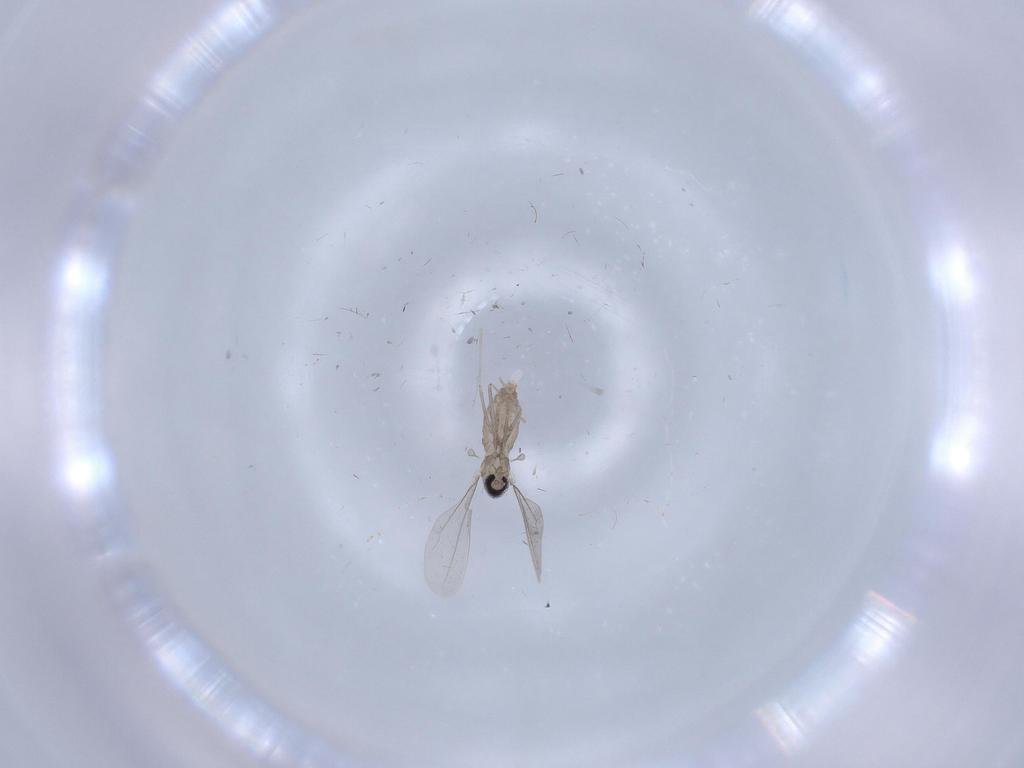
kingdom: Animalia
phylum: Arthropoda
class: Insecta
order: Diptera
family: Cecidomyiidae
